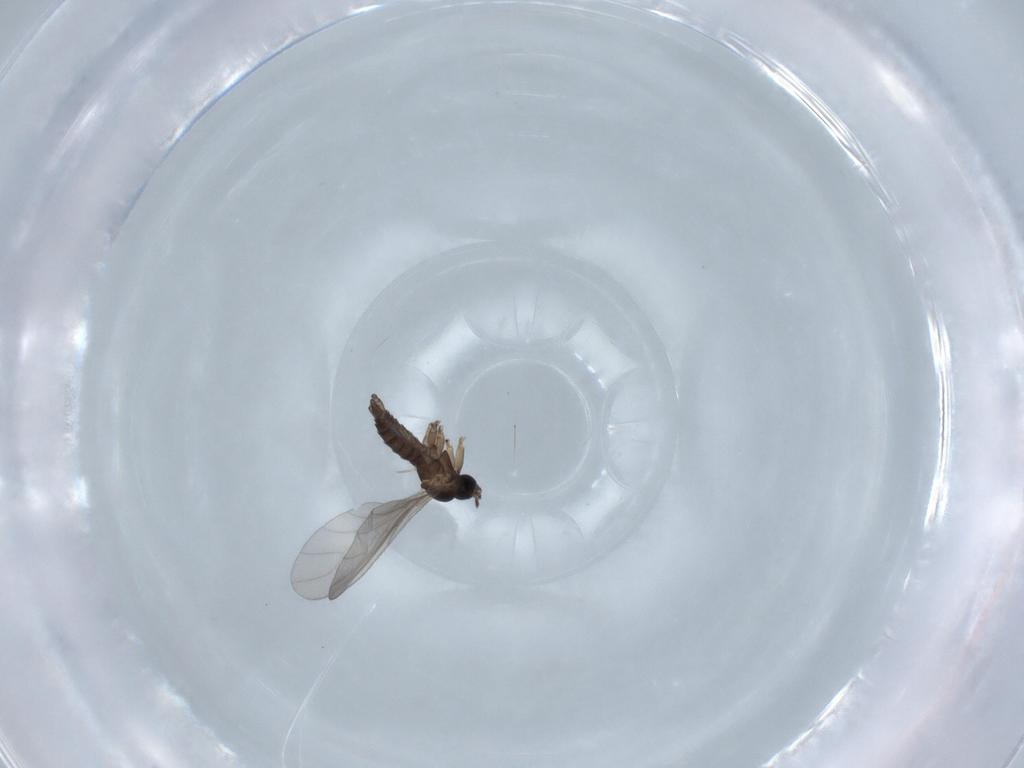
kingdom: Animalia
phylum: Arthropoda
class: Insecta
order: Diptera
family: Sciaridae
